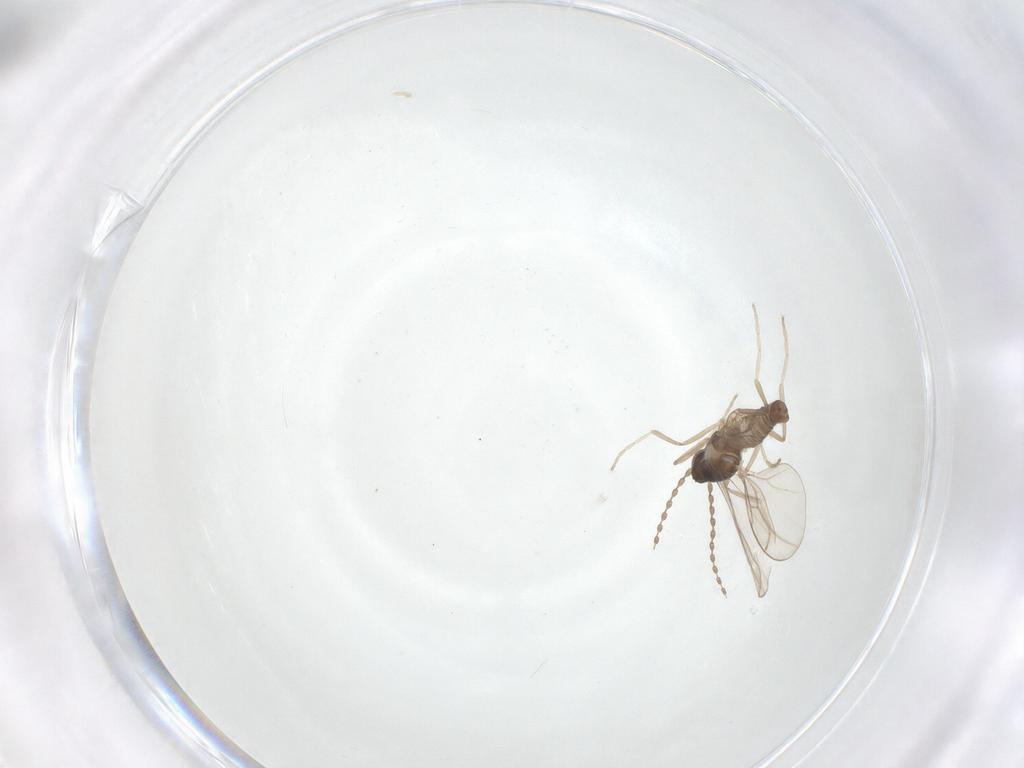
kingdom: Animalia
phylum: Arthropoda
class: Insecta
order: Diptera
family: Cecidomyiidae
